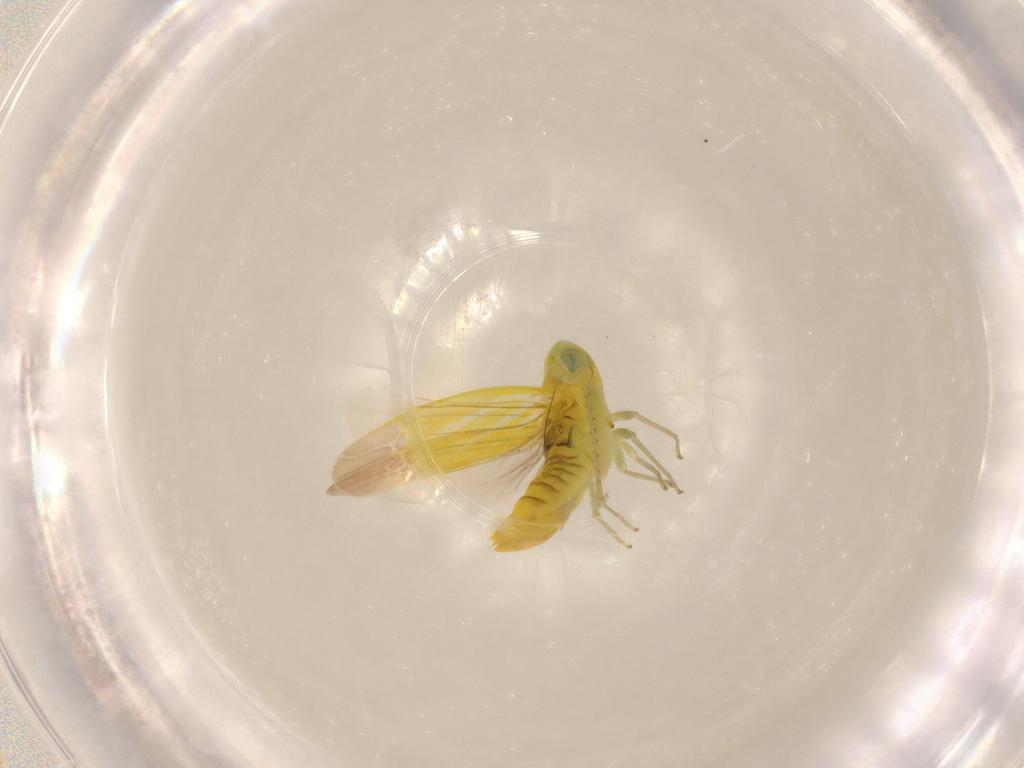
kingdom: Animalia
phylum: Arthropoda
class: Insecta
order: Hemiptera
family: Cicadellidae
